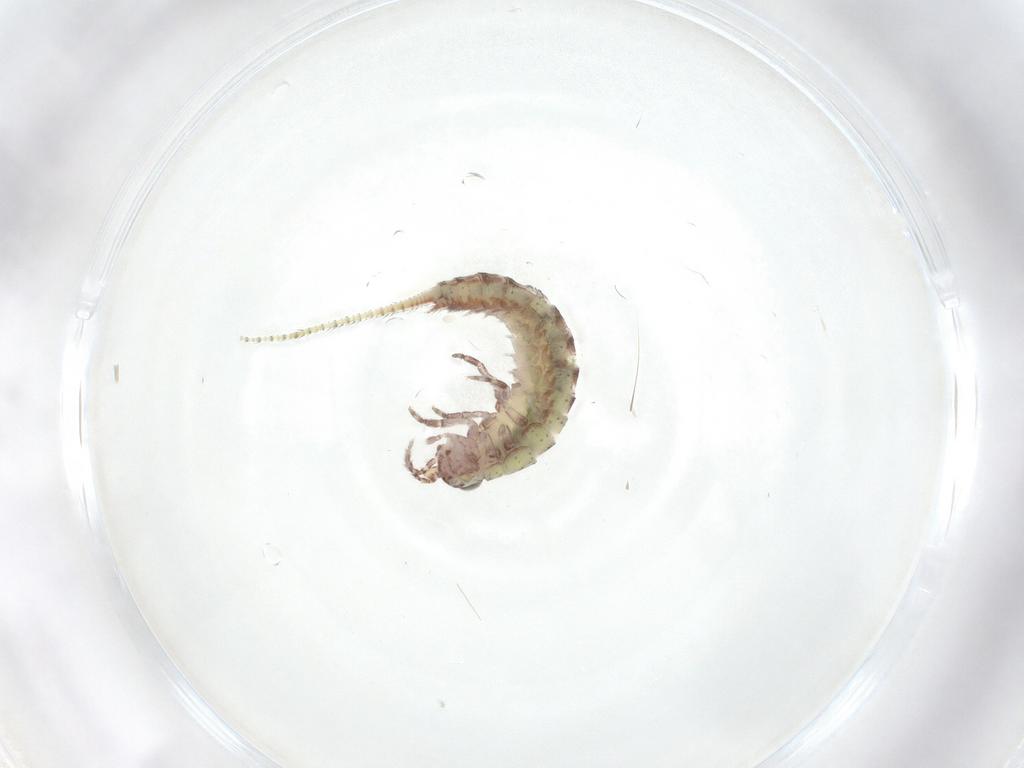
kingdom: Animalia
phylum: Arthropoda
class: Insecta
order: Archaeognatha
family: Machilidae
